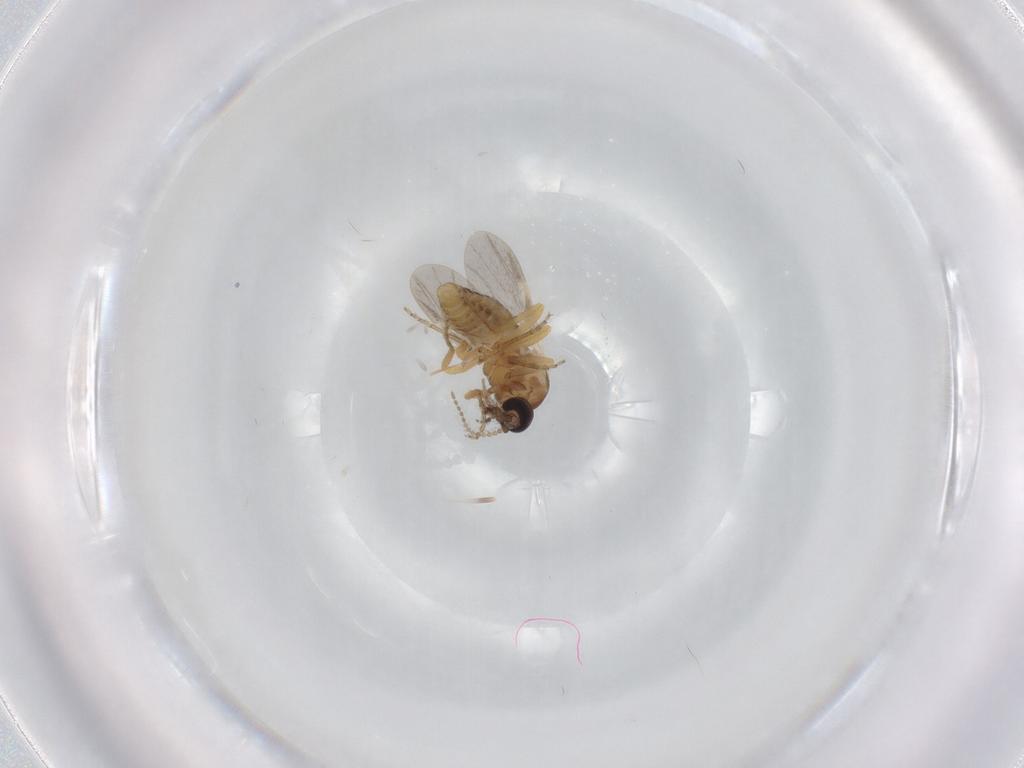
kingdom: Animalia
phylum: Arthropoda
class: Insecta
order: Diptera
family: Ceratopogonidae
